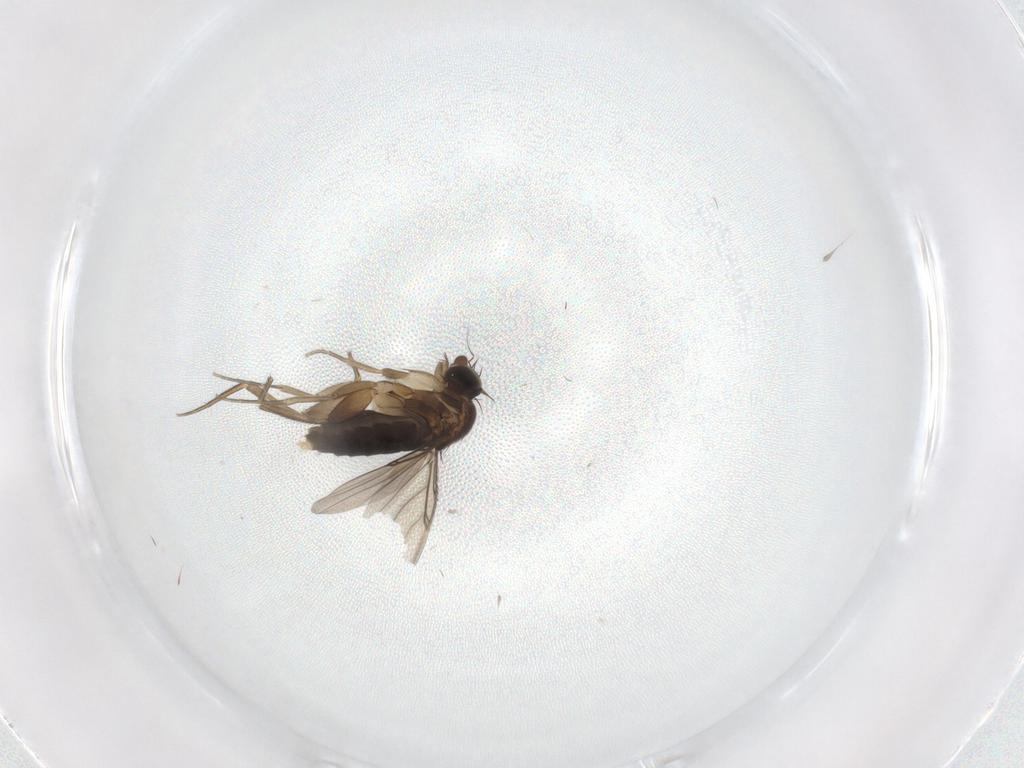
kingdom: Animalia
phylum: Arthropoda
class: Insecta
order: Diptera
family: Phoridae
